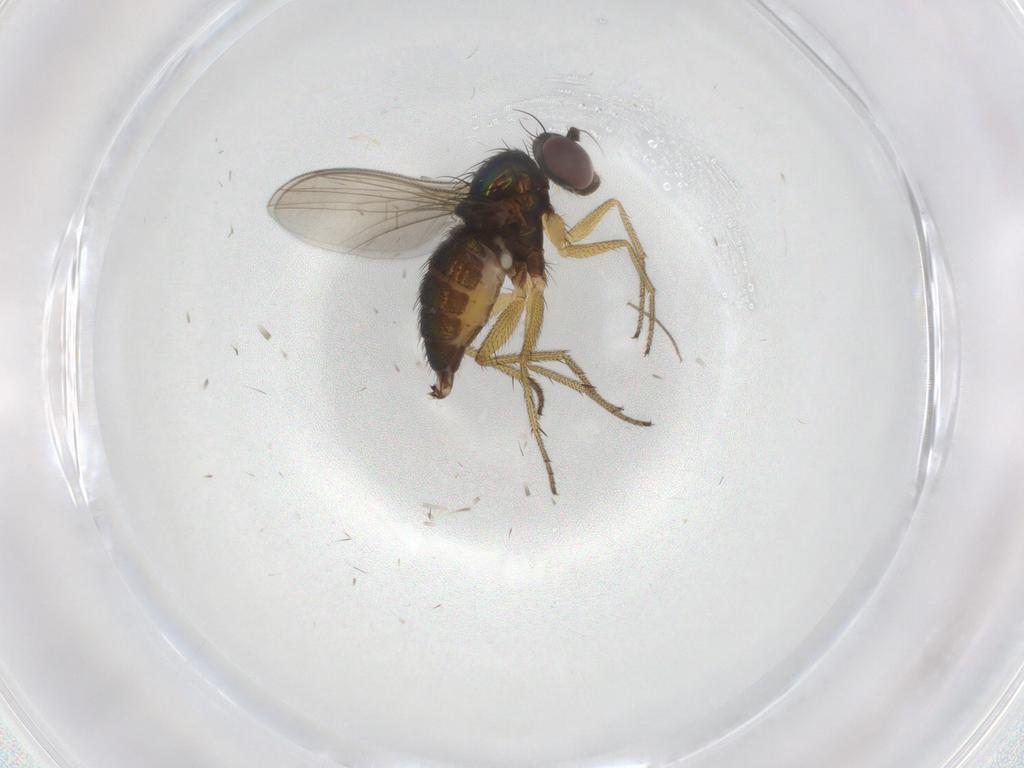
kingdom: Animalia
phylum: Arthropoda
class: Insecta
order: Diptera
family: Dolichopodidae
